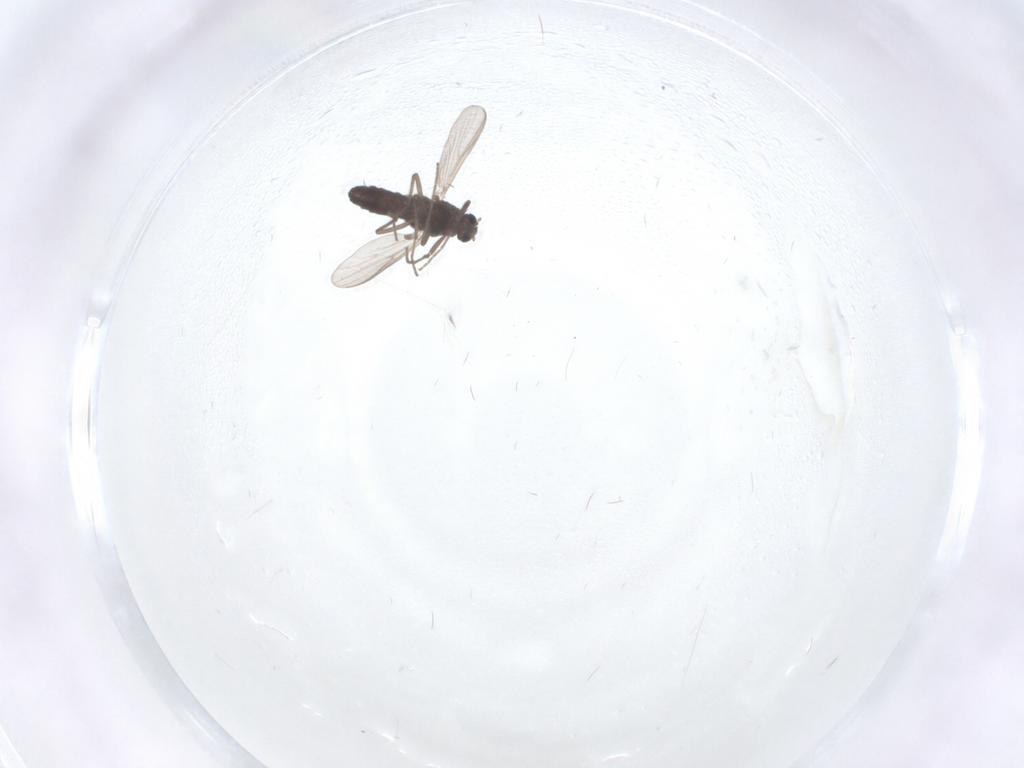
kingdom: Animalia
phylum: Arthropoda
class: Insecta
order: Diptera
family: Chironomidae
